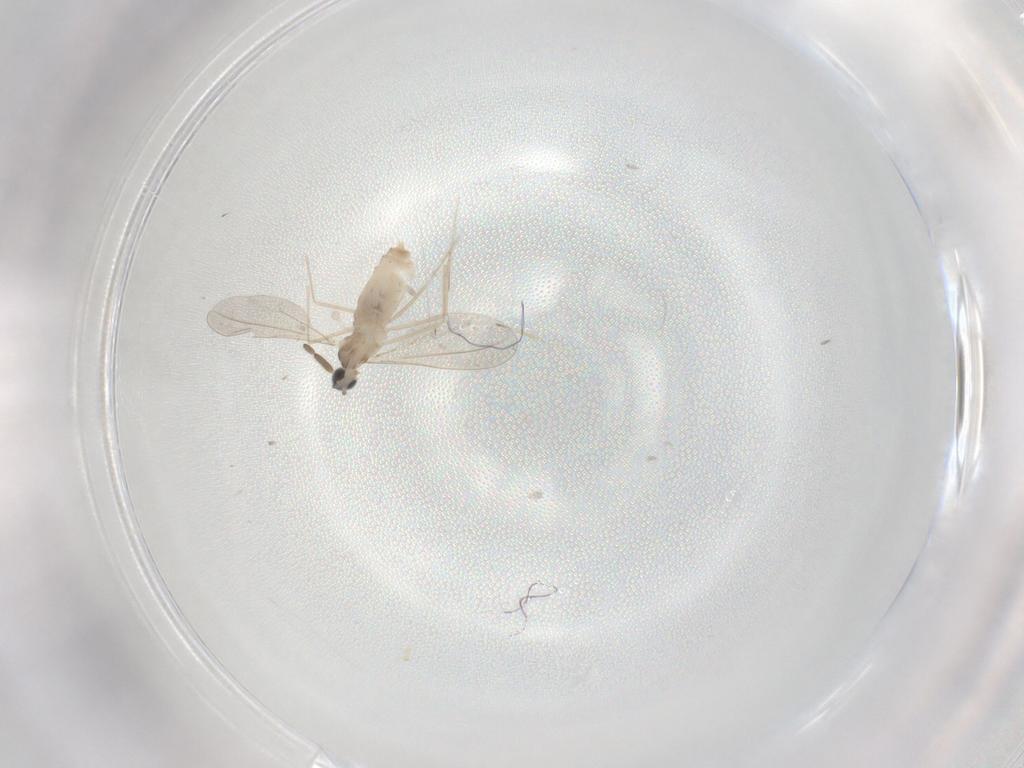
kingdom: Animalia
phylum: Arthropoda
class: Insecta
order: Diptera
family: Cecidomyiidae
